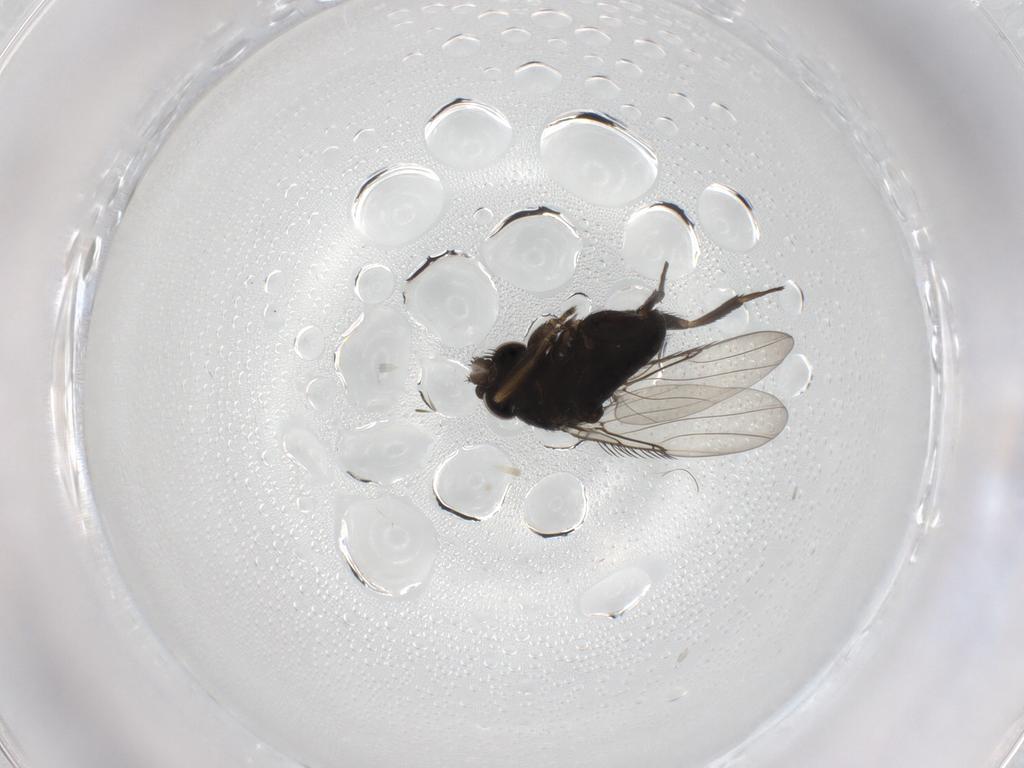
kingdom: Animalia
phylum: Arthropoda
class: Insecta
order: Diptera
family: Phoridae
